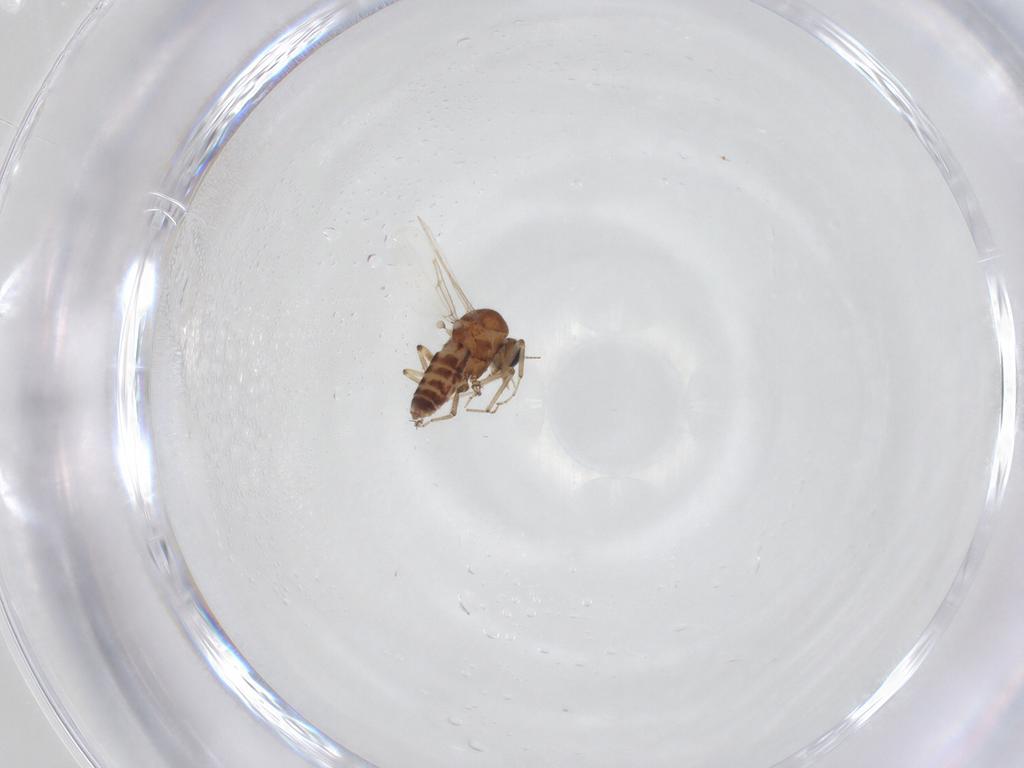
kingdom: Animalia
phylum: Arthropoda
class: Insecta
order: Diptera
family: Ceratopogonidae
